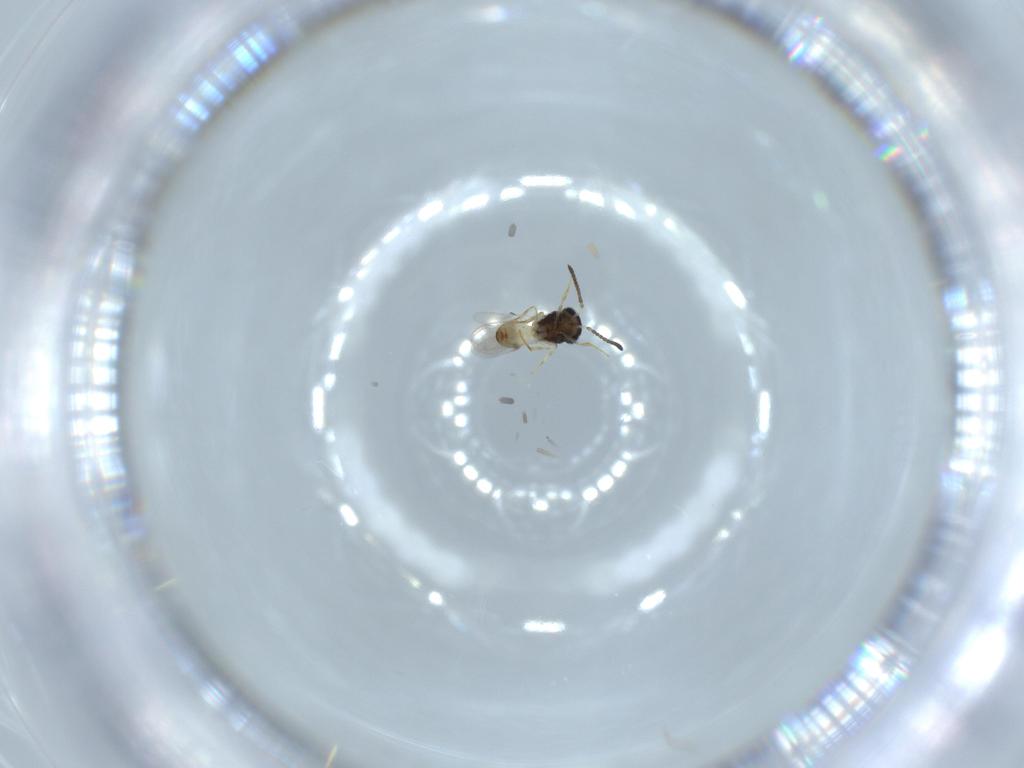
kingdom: Animalia
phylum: Arthropoda
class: Insecta
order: Hymenoptera
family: Scelionidae
